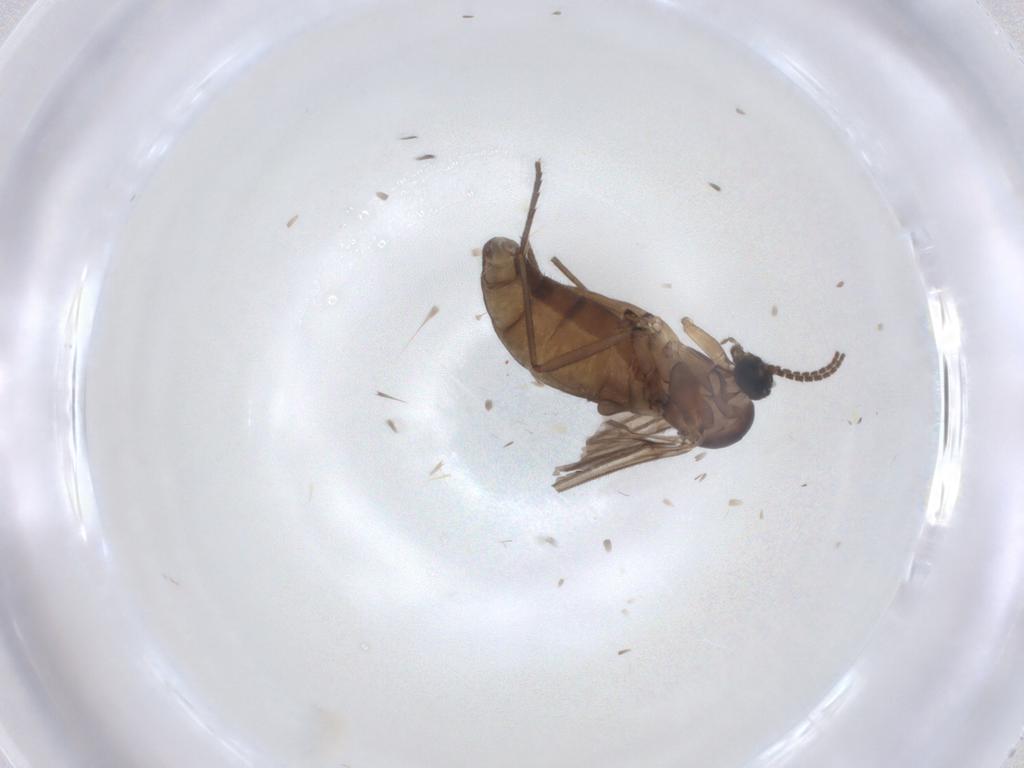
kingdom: Animalia
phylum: Arthropoda
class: Insecta
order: Diptera
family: Sciaridae
